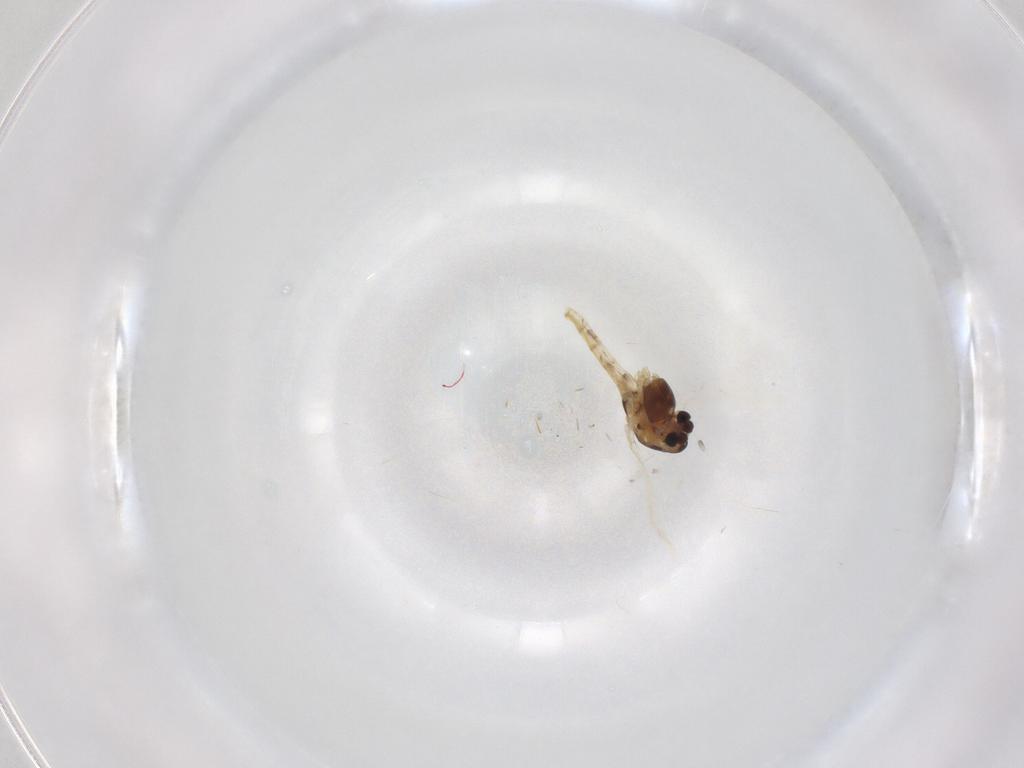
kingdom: Animalia
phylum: Arthropoda
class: Insecta
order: Diptera
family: Chironomidae
